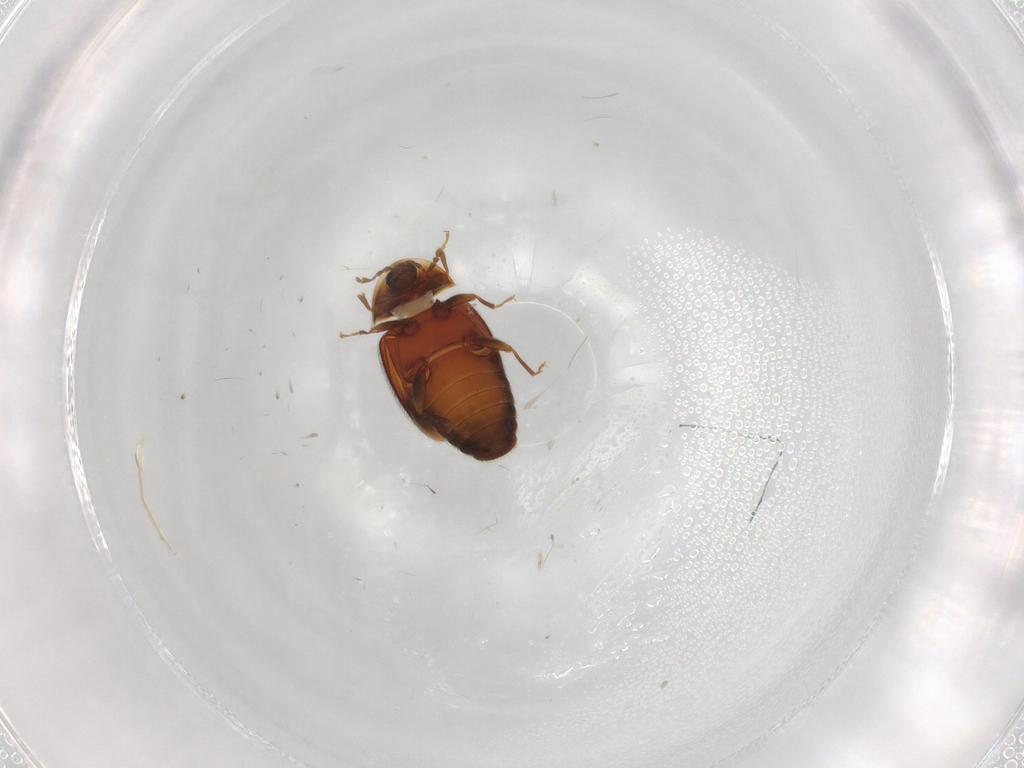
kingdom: Animalia
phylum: Arthropoda
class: Insecta
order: Coleoptera
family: Corylophidae
